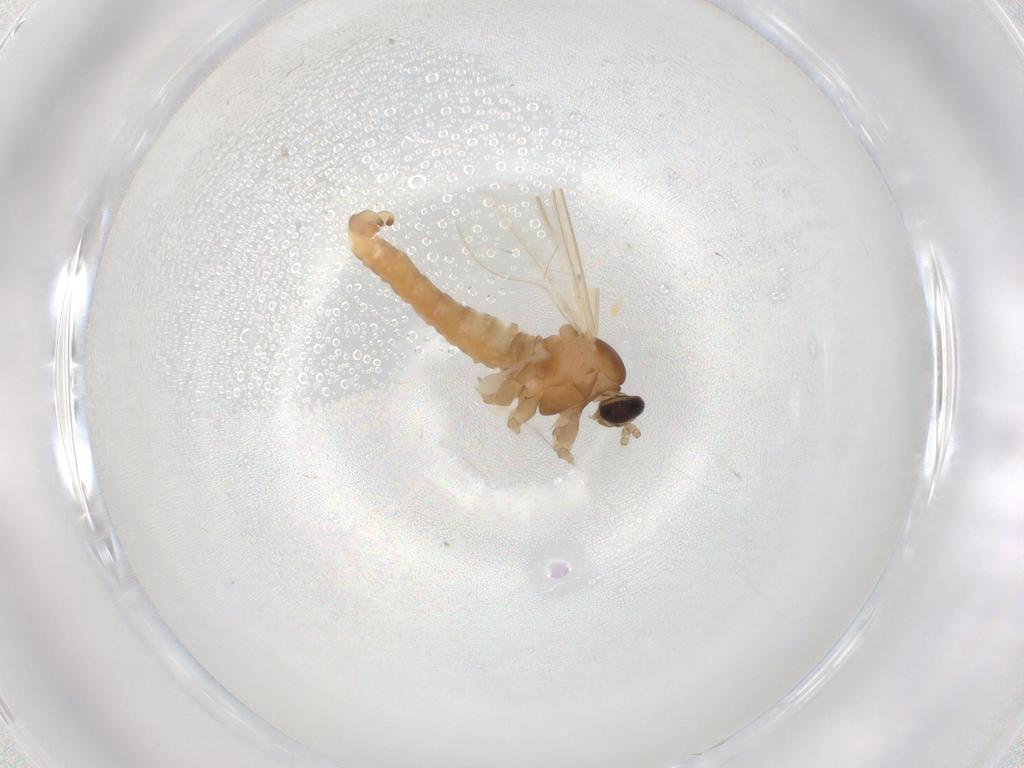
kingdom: Animalia
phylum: Arthropoda
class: Insecta
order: Diptera
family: Cecidomyiidae
